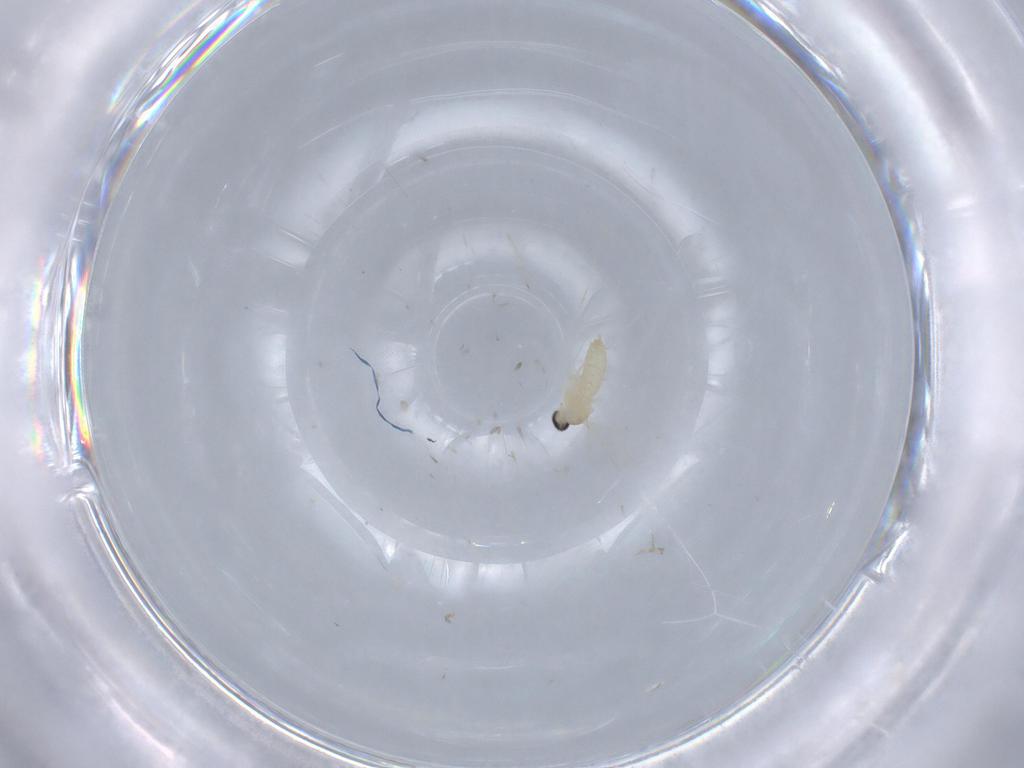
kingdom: Animalia
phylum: Arthropoda
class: Insecta
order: Diptera
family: Cecidomyiidae
